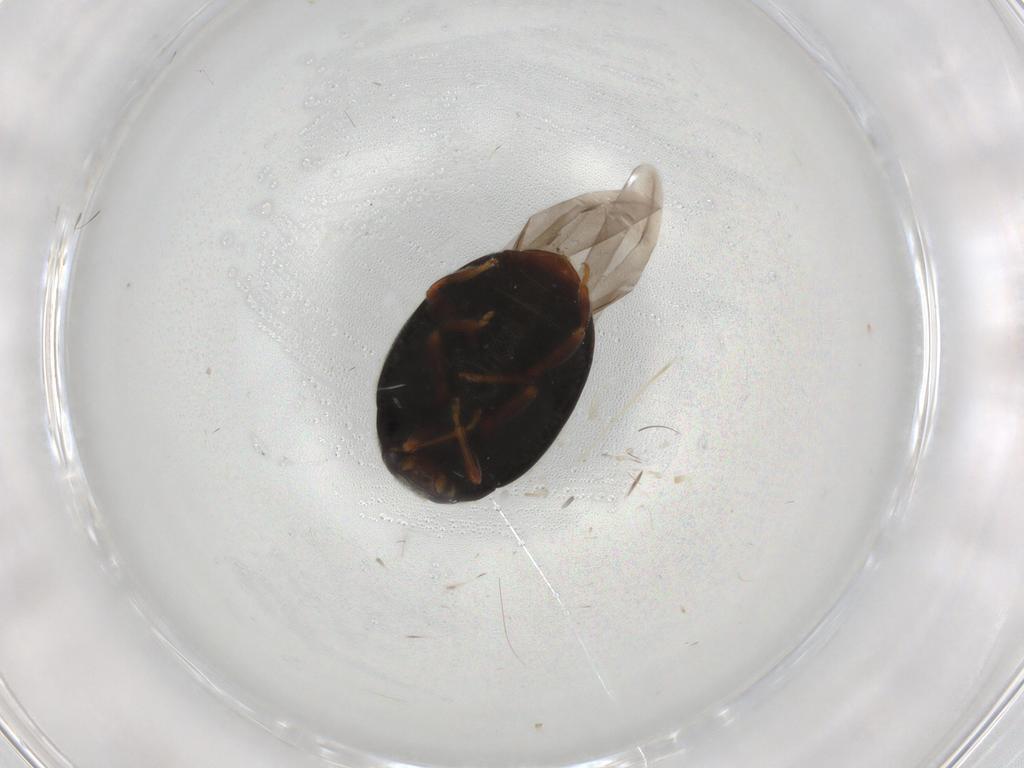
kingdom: Animalia
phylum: Arthropoda
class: Insecta
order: Coleoptera
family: Coccinellidae
